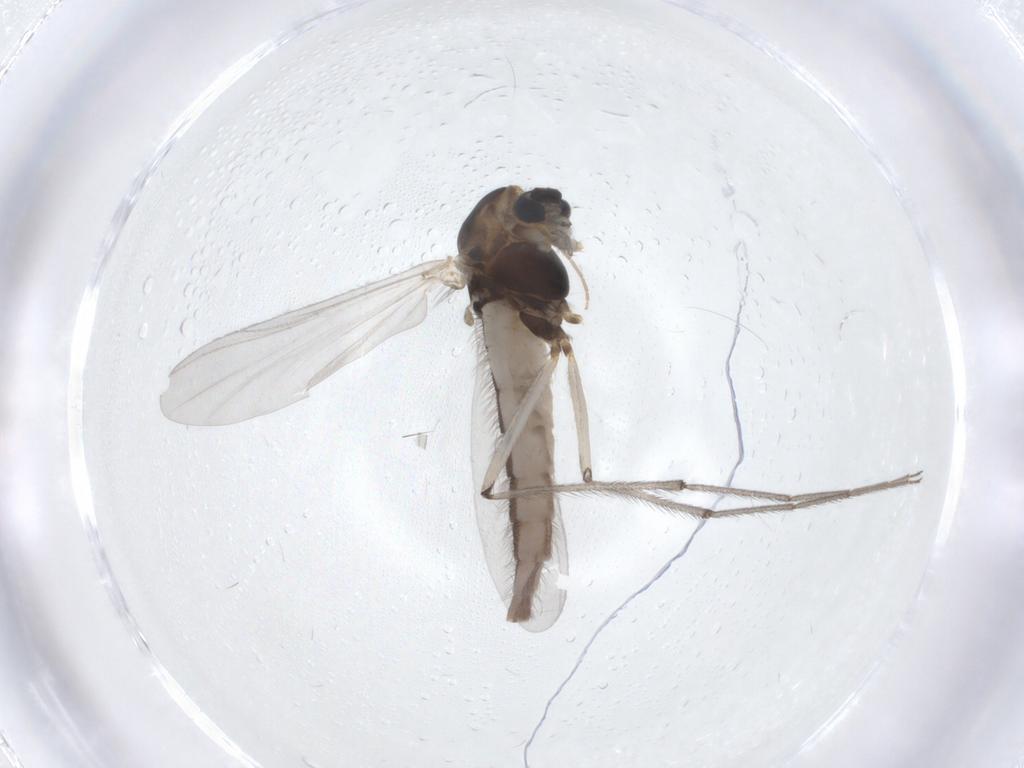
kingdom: Animalia
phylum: Arthropoda
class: Insecta
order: Diptera
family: Chironomidae
